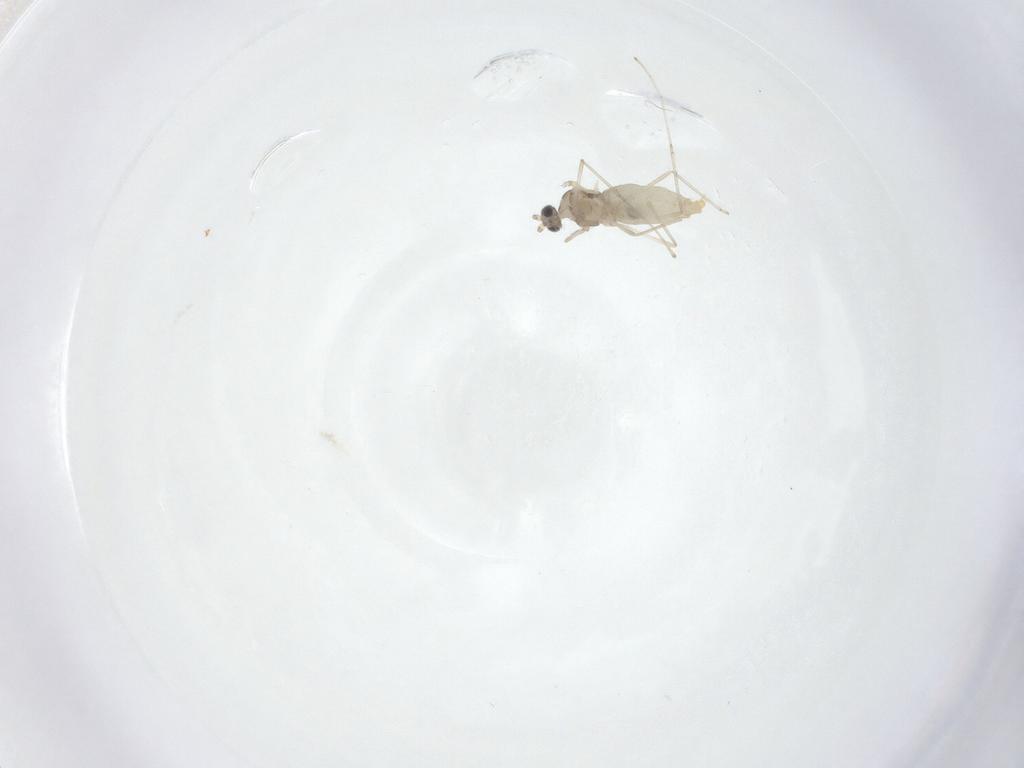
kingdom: Animalia
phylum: Arthropoda
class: Insecta
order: Diptera
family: Cecidomyiidae
